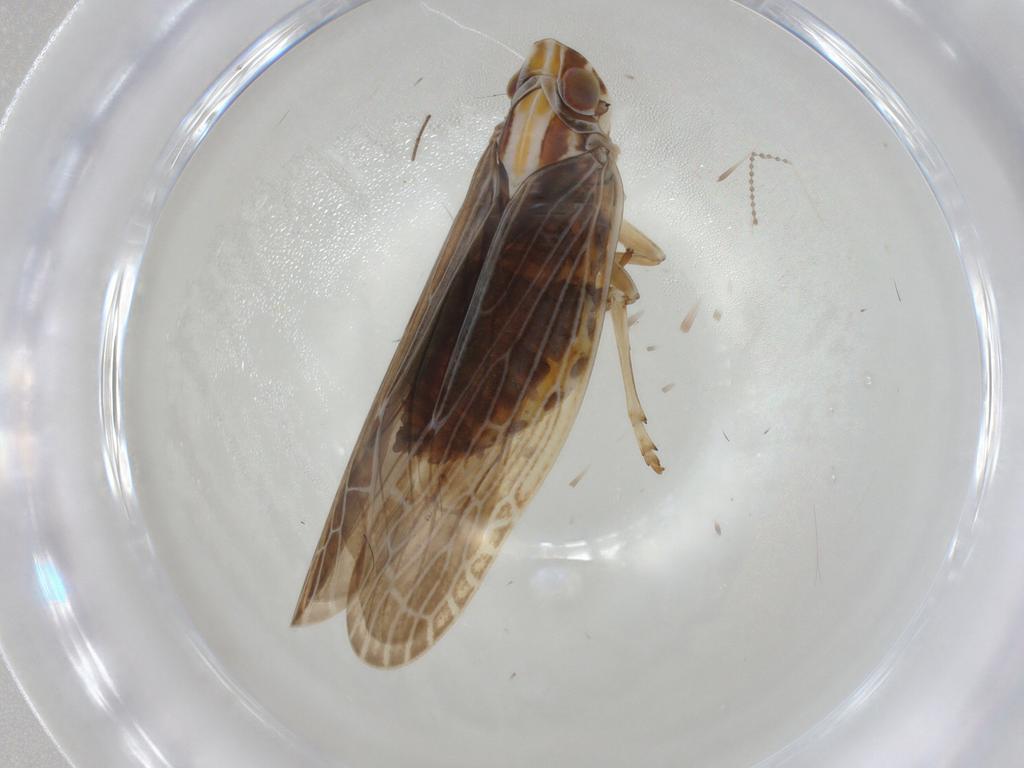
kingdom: Animalia
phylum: Arthropoda
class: Insecta
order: Hemiptera
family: Achilidae
